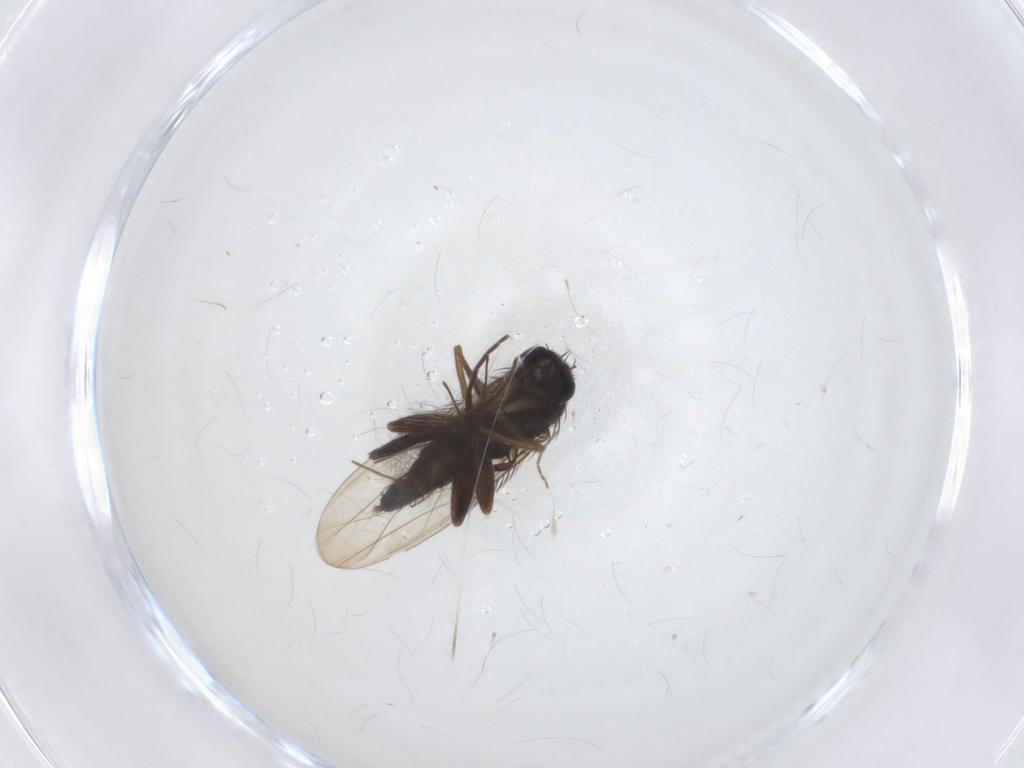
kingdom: Animalia
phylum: Arthropoda
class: Insecta
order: Diptera
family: Phoridae
